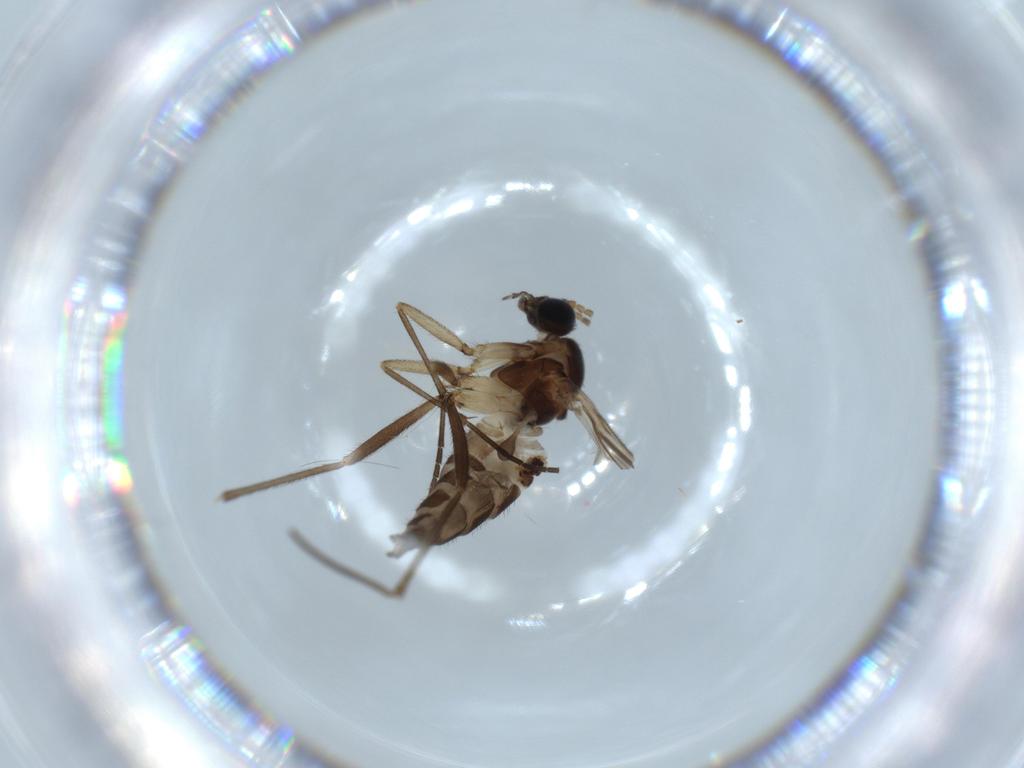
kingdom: Animalia
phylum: Arthropoda
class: Insecta
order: Diptera
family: Sciaridae
